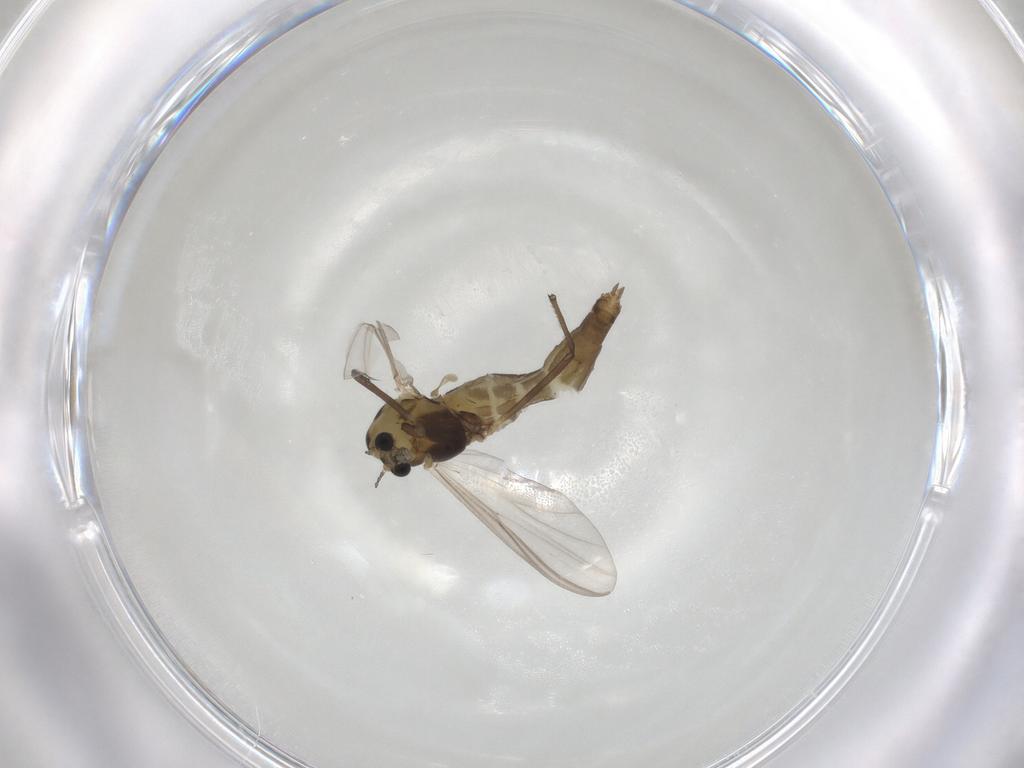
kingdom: Animalia
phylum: Arthropoda
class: Insecta
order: Diptera
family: Chironomidae
